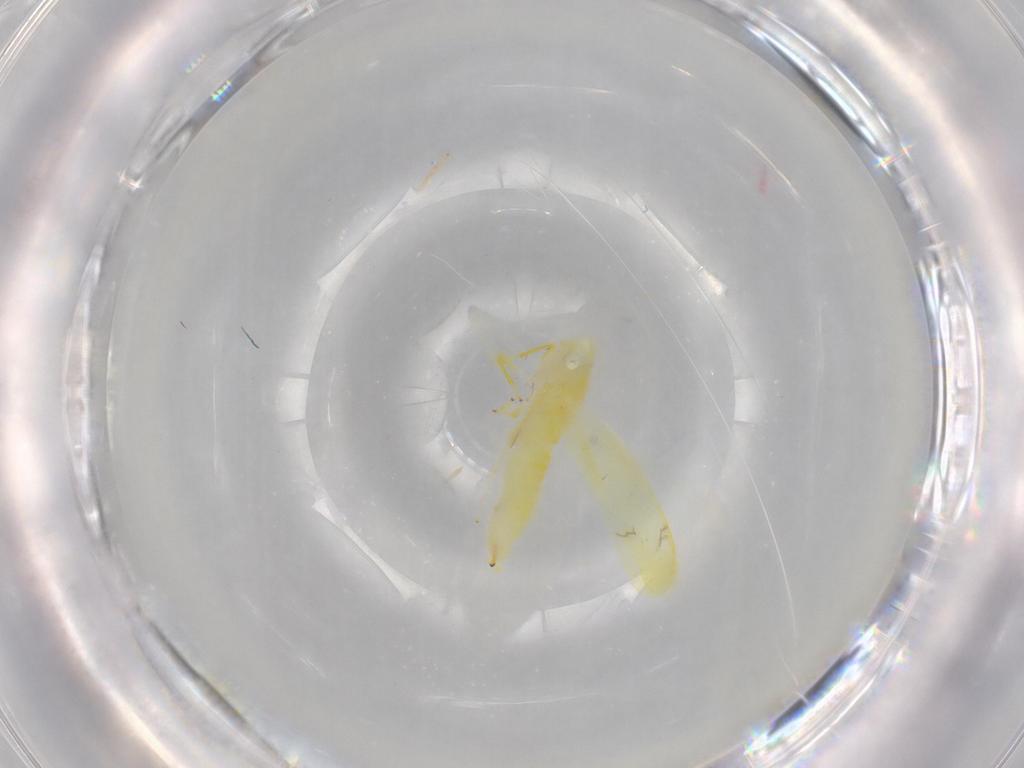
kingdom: Animalia
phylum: Arthropoda
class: Insecta
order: Hemiptera
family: Cicadellidae
